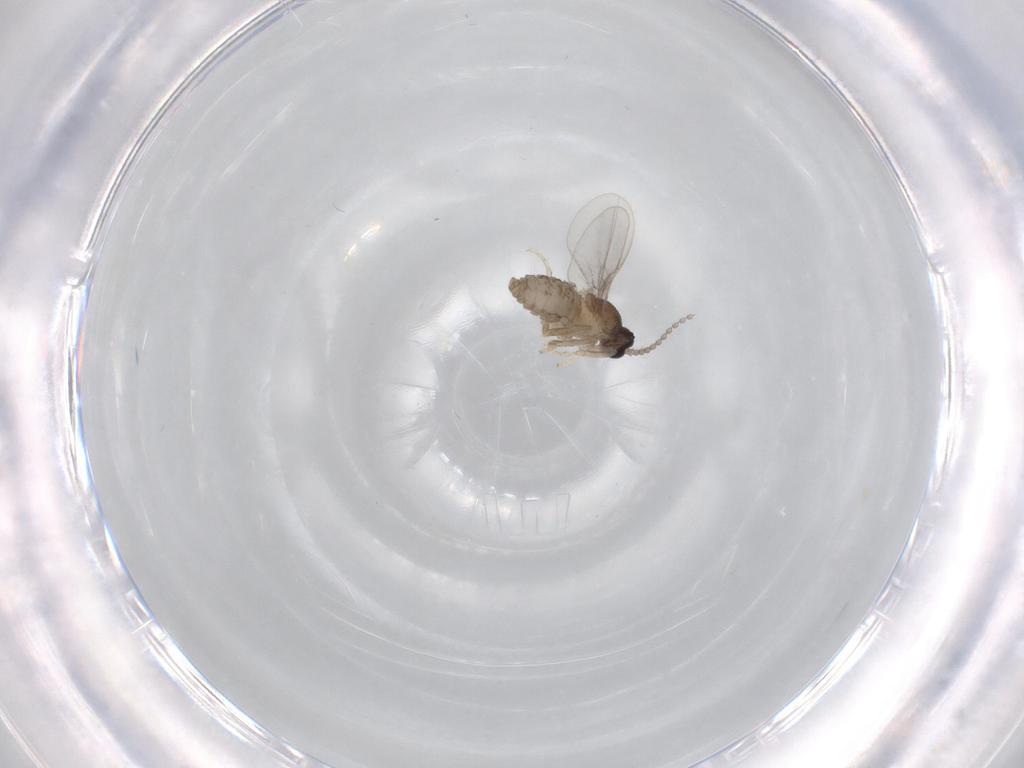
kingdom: Animalia
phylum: Arthropoda
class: Insecta
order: Diptera
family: Cecidomyiidae
